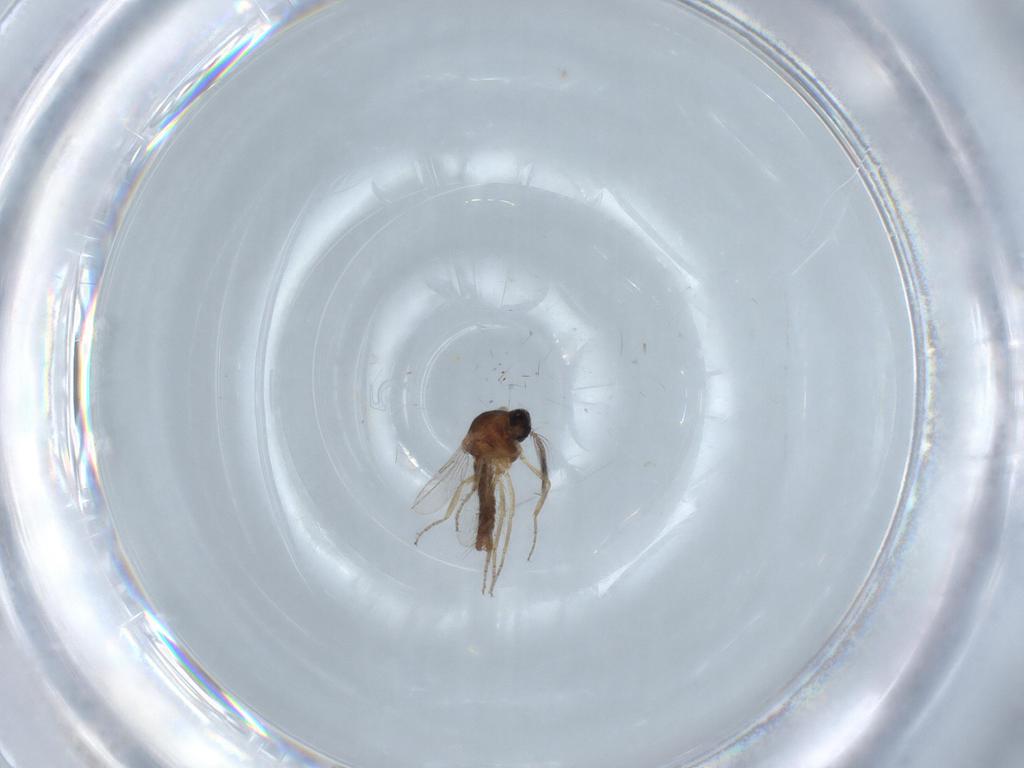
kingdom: Animalia
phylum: Arthropoda
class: Insecta
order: Diptera
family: Ceratopogonidae
